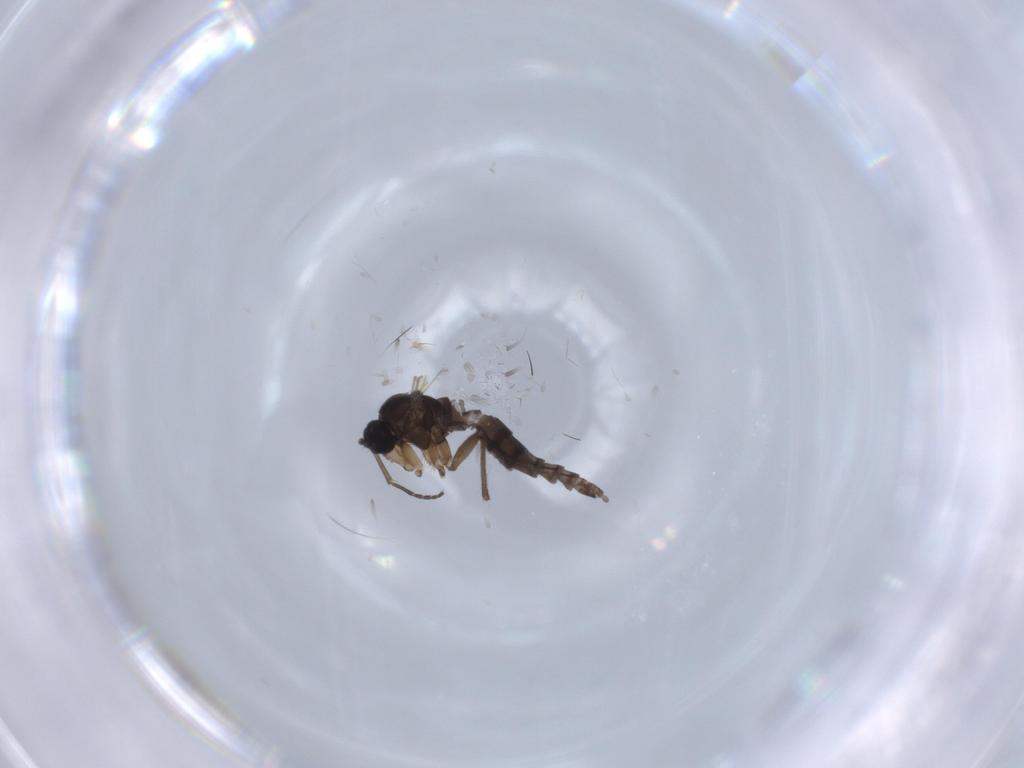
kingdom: Animalia
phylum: Arthropoda
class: Insecta
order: Diptera
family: Sciaridae
